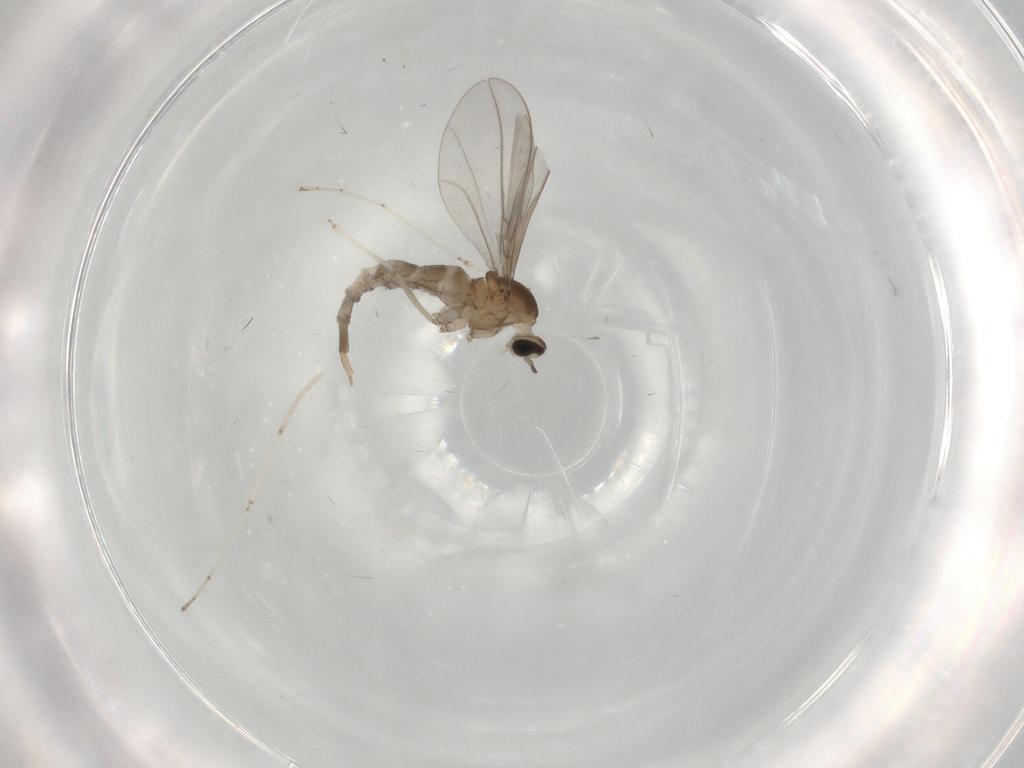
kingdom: Animalia
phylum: Arthropoda
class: Insecta
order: Diptera
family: Cecidomyiidae
